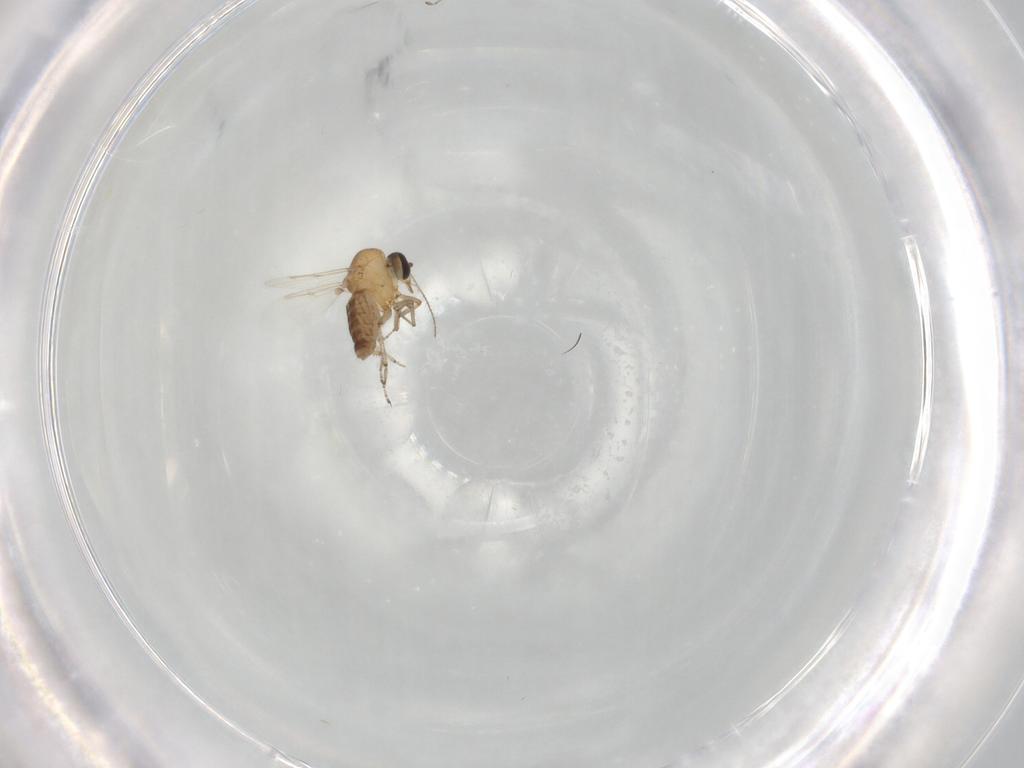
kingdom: Animalia
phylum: Arthropoda
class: Insecta
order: Diptera
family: Ceratopogonidae
